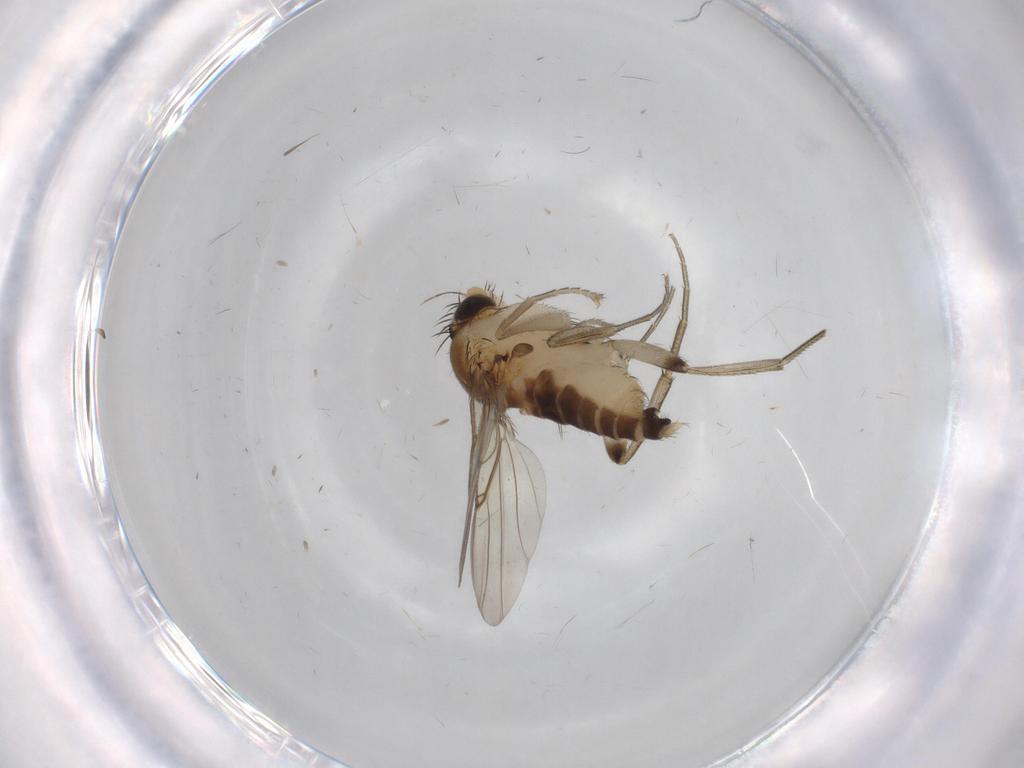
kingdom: Animalia
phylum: Arthropoda
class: Insecta
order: Diptera
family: Phoridae
